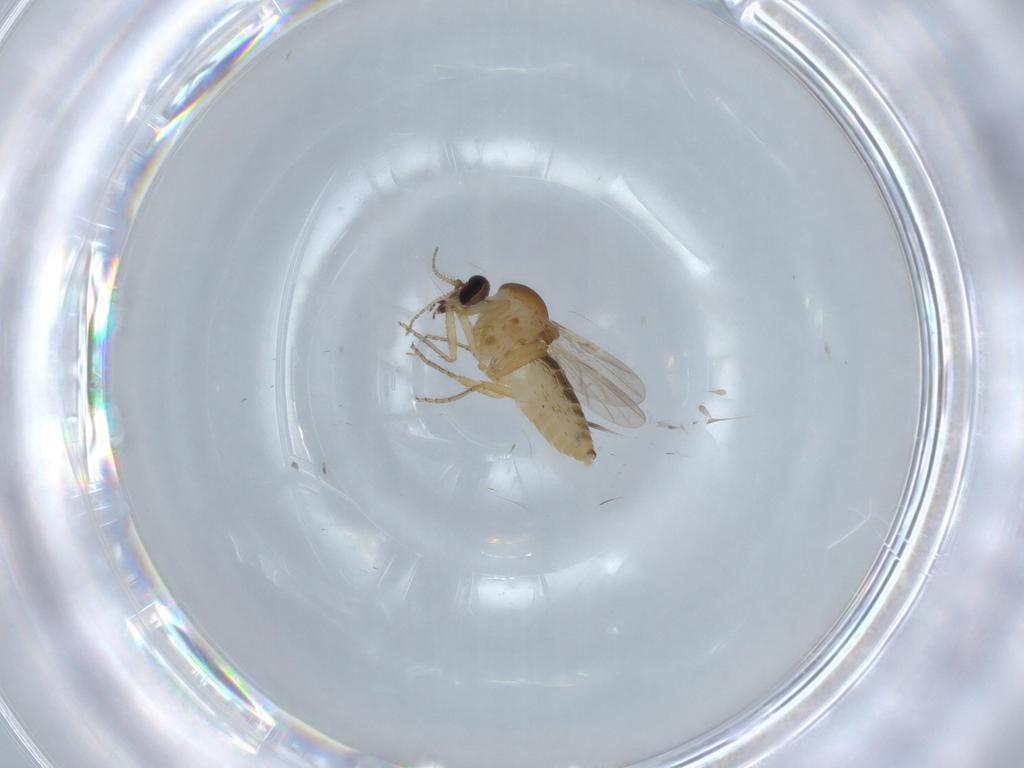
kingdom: Animalia
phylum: Arthropoda
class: Insecta
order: Diptera
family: Ceratopogonidae
